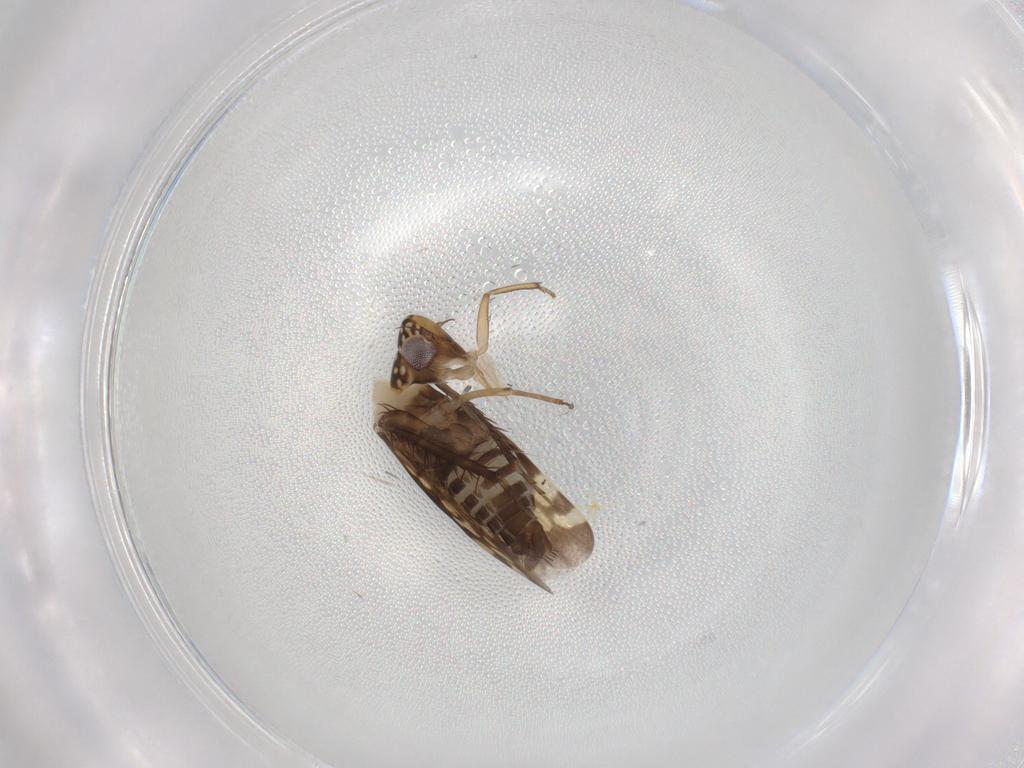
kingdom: Animalia
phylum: Arthropoda
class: Insecta
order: Hemiptera
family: Cicadellidae
